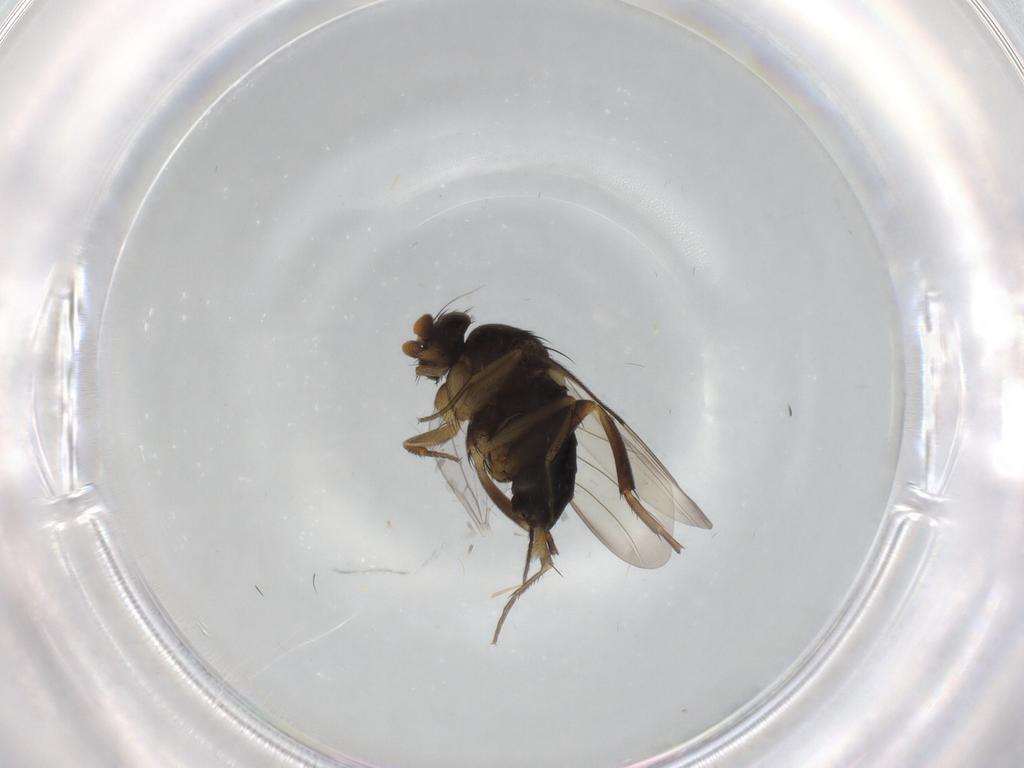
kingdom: Animalia
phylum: Arthropoda
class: Insecta
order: Diptera
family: Phoridae
